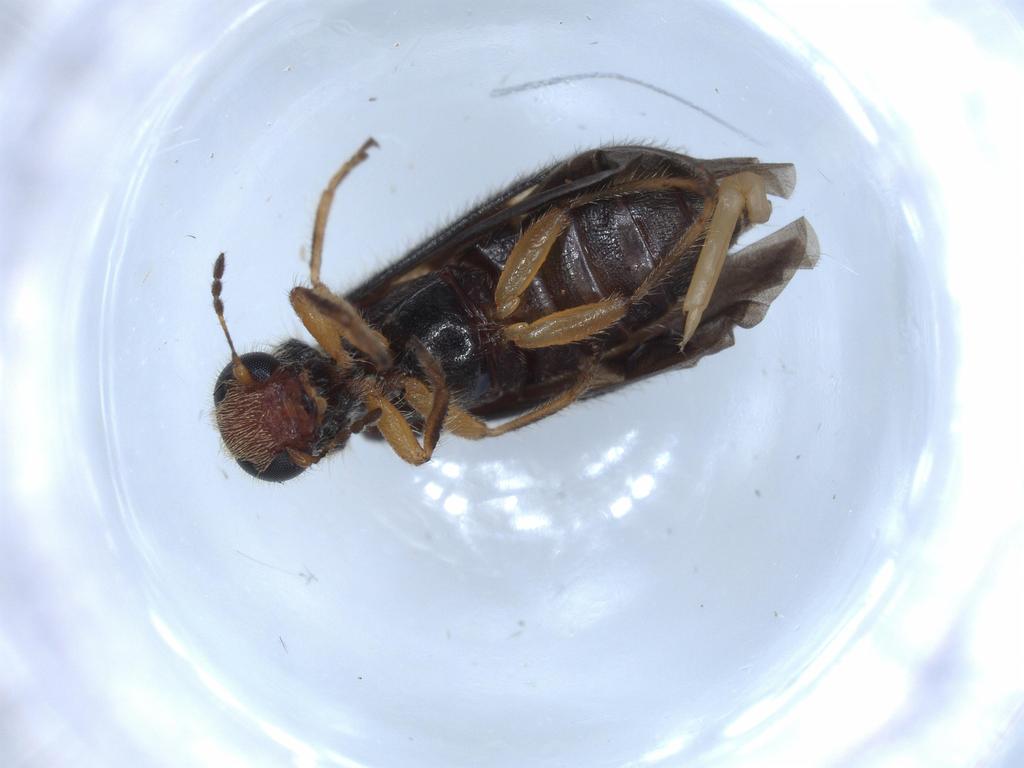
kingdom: Animalia
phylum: Arthropoda
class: Insecta
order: Coleoptera
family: Cleridae
